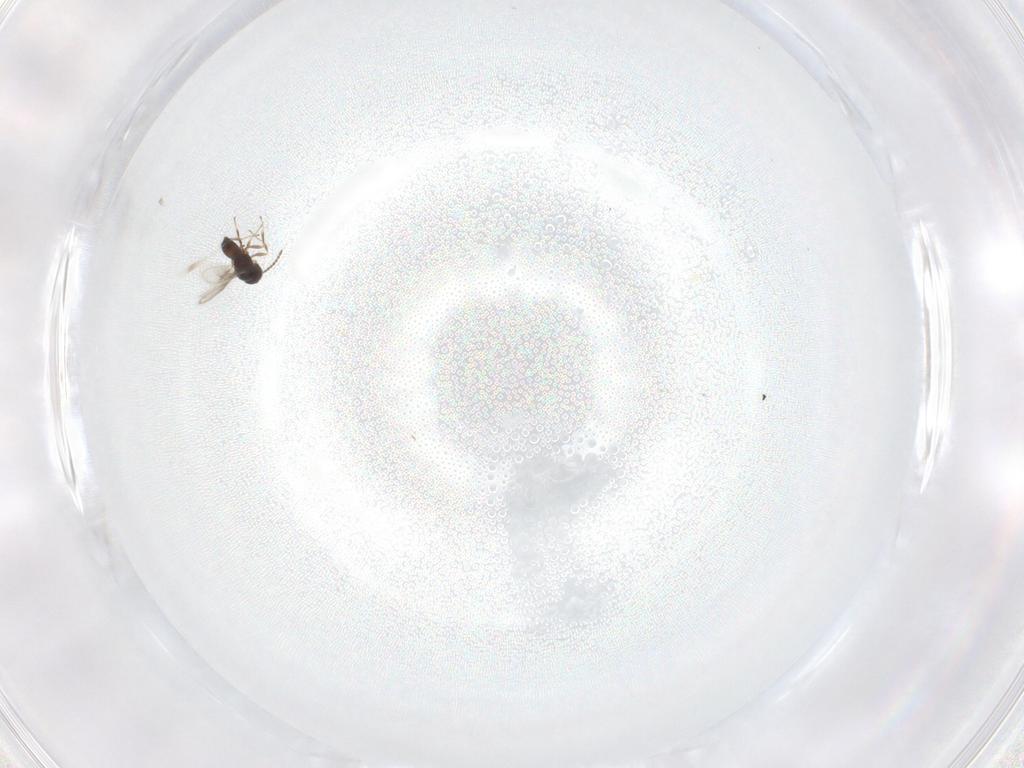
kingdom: Animalia
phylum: Arthropoda
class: Insecta
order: Hymenoptera
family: Scelionidae
